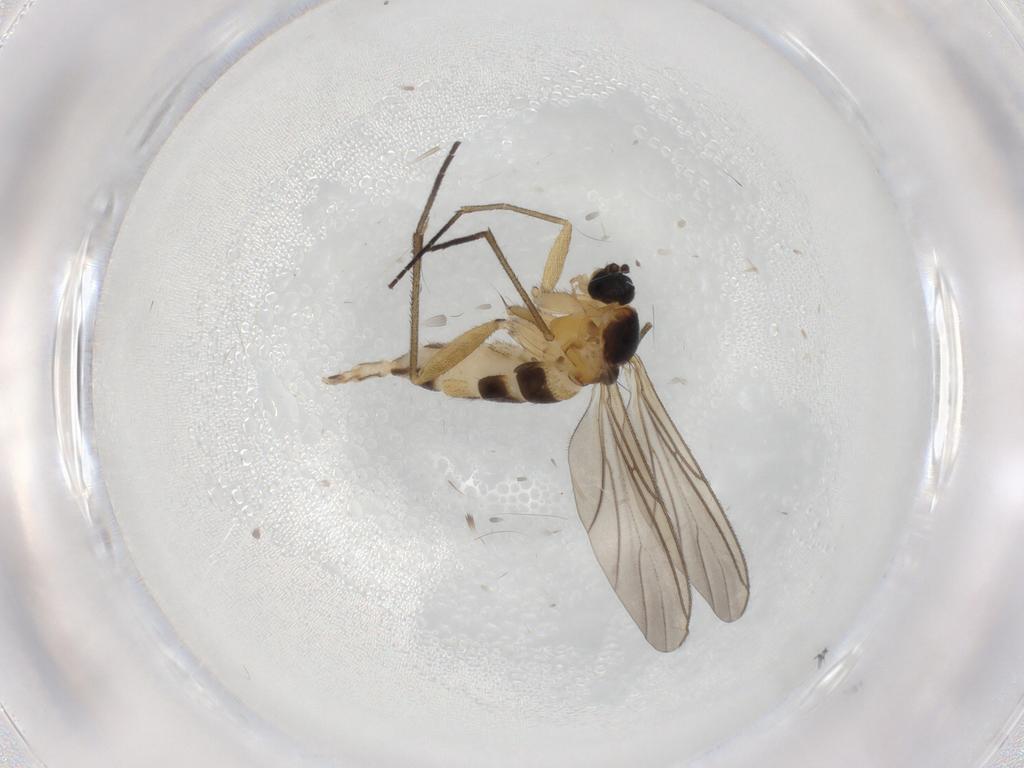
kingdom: Animalia
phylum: Arthropoda
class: Insecta
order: Diptera
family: Sciaridae
